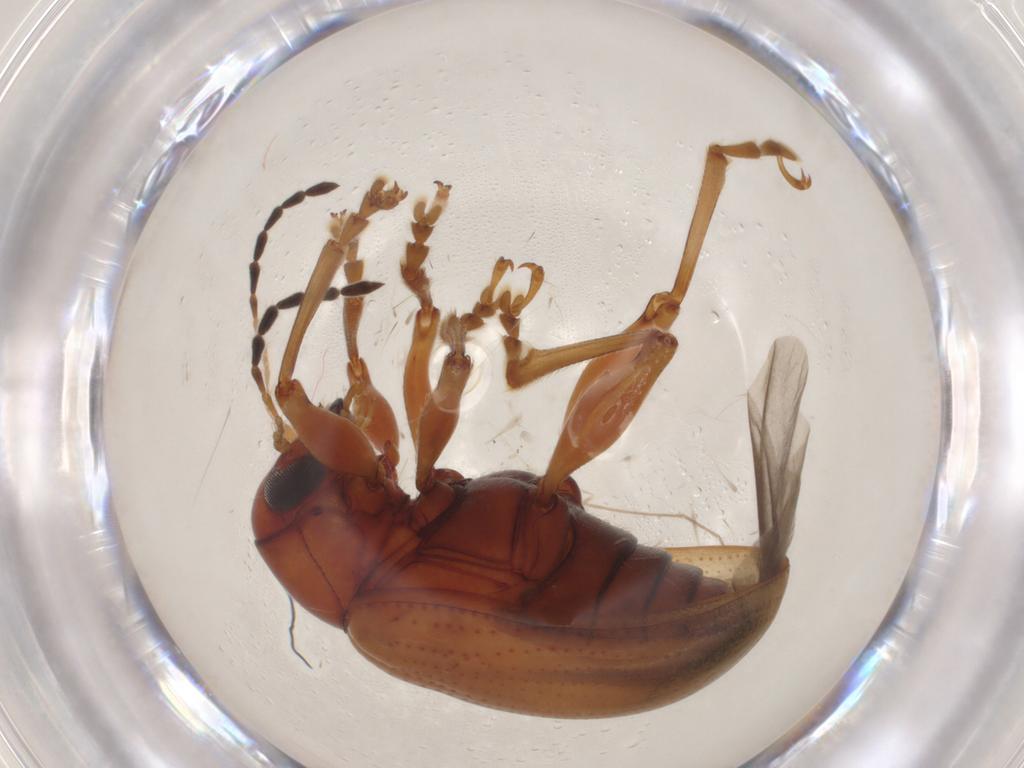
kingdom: Animalia
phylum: Arthropoda
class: Insecta
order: Coleoptera
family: Chrysomelidae
